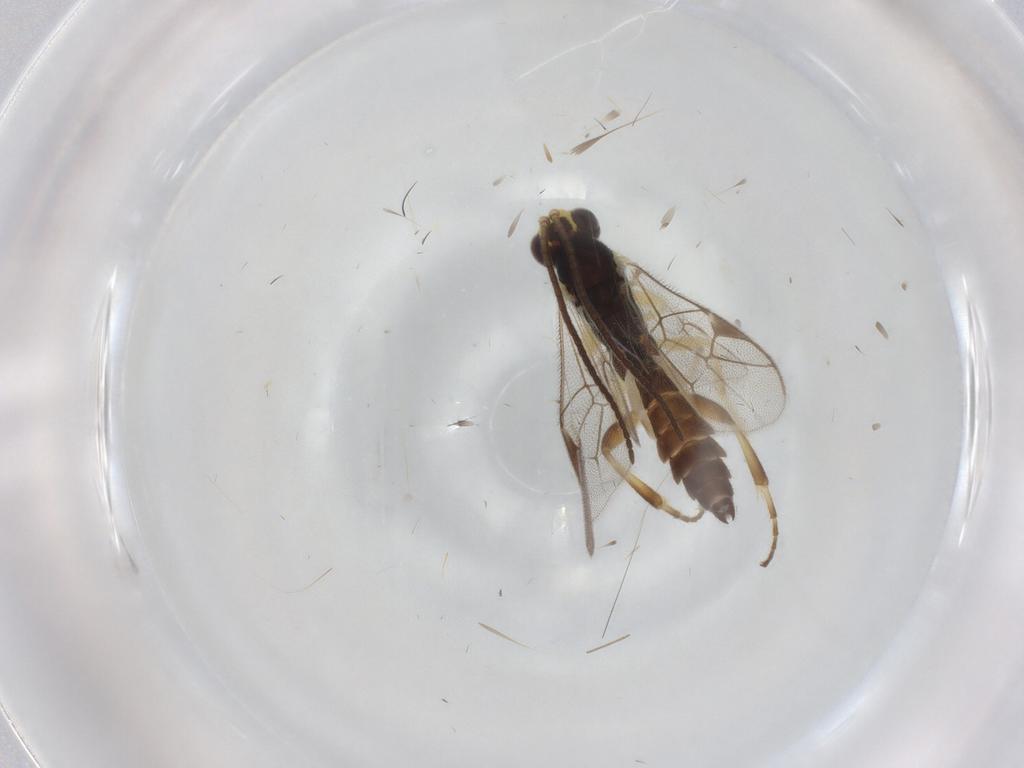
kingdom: Animalia
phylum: Arthropoda
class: Insecta
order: Hymenoptera
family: Ichneumonidae
